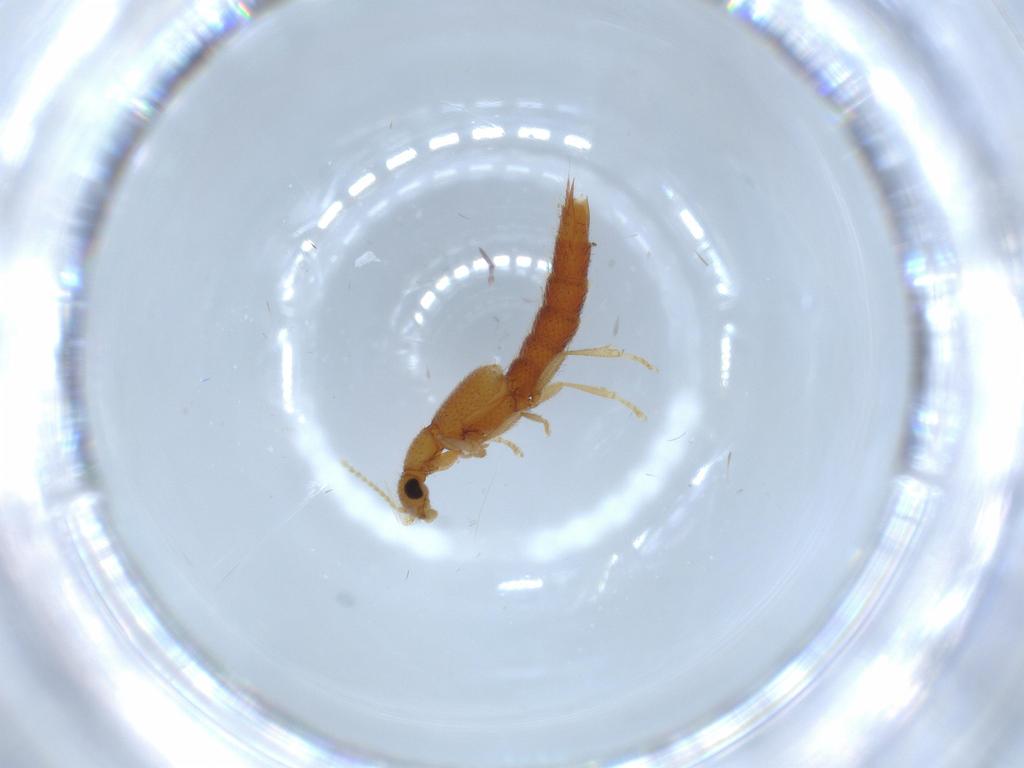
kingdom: Animalia
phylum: Arthropoda
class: Insecta
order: Coleoptera
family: Staphylinidae
